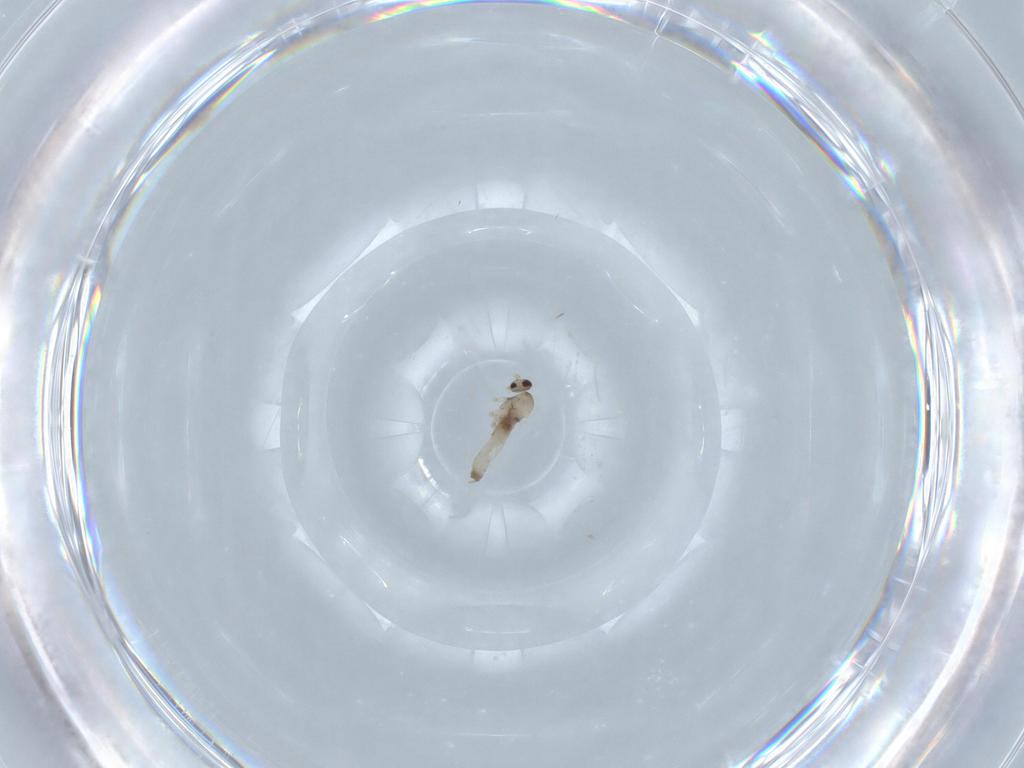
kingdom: Animalia
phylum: Arthropoda
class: Insecta
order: Diptera
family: Cecidomyiidae
